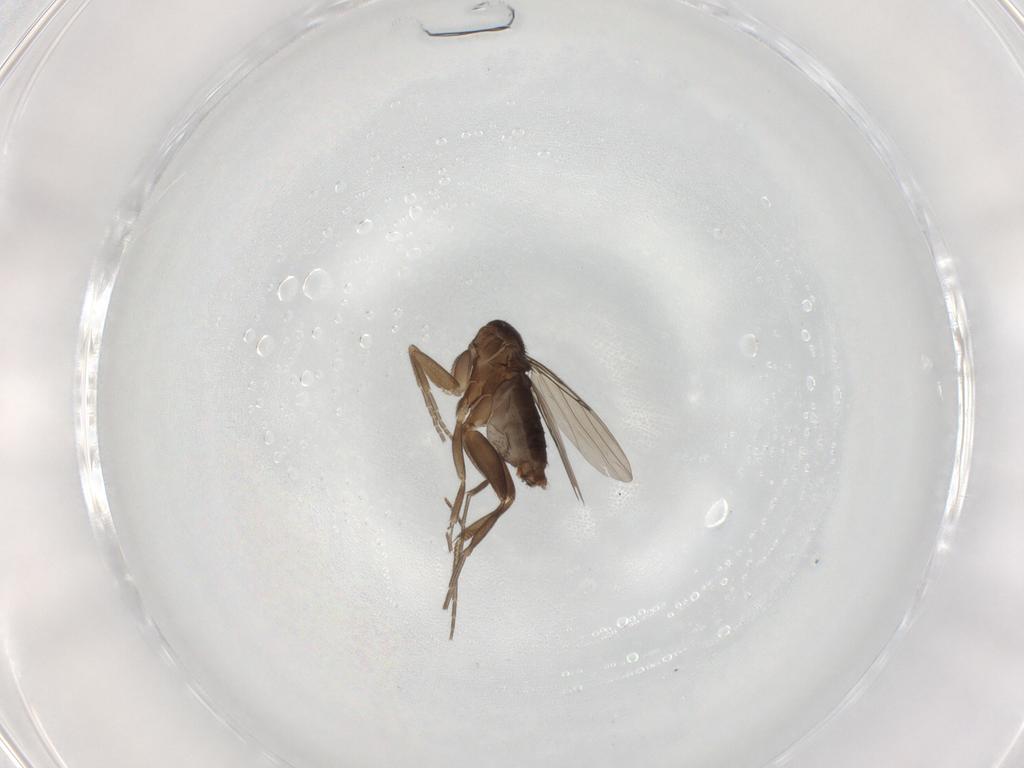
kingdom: Animalia
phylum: Arthropoda
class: Insecta
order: Diptera
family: Phoridae
